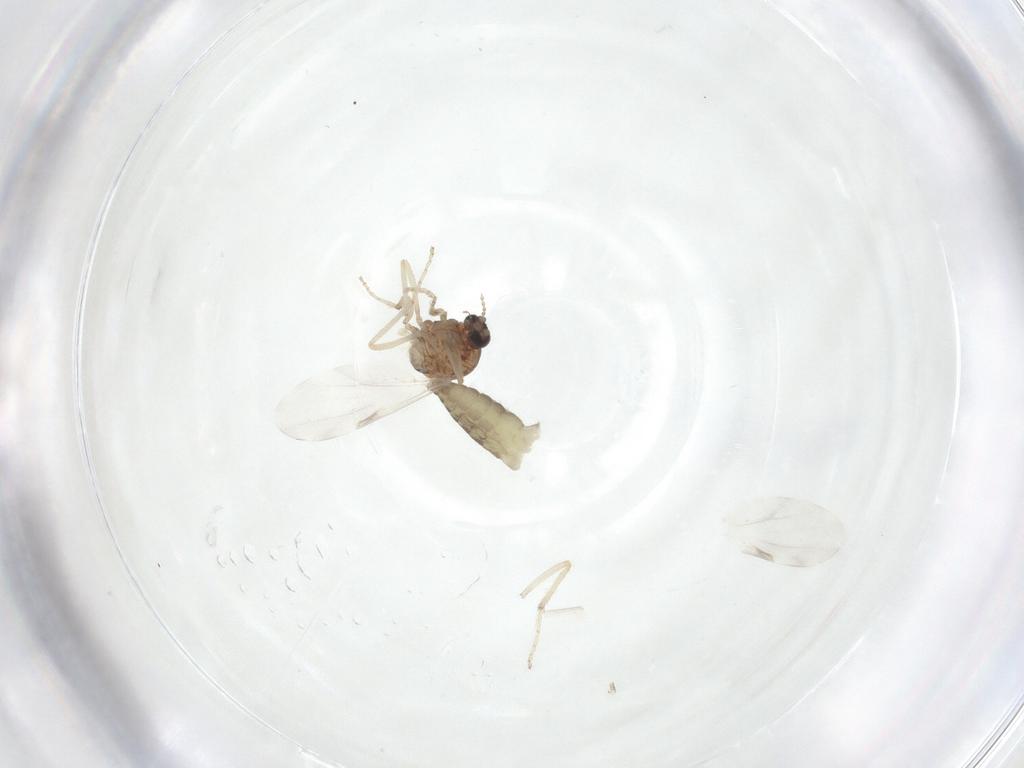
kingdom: Animalia
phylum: Arthropoda
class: Insecta
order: Diptera
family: Ceratopogonidae
